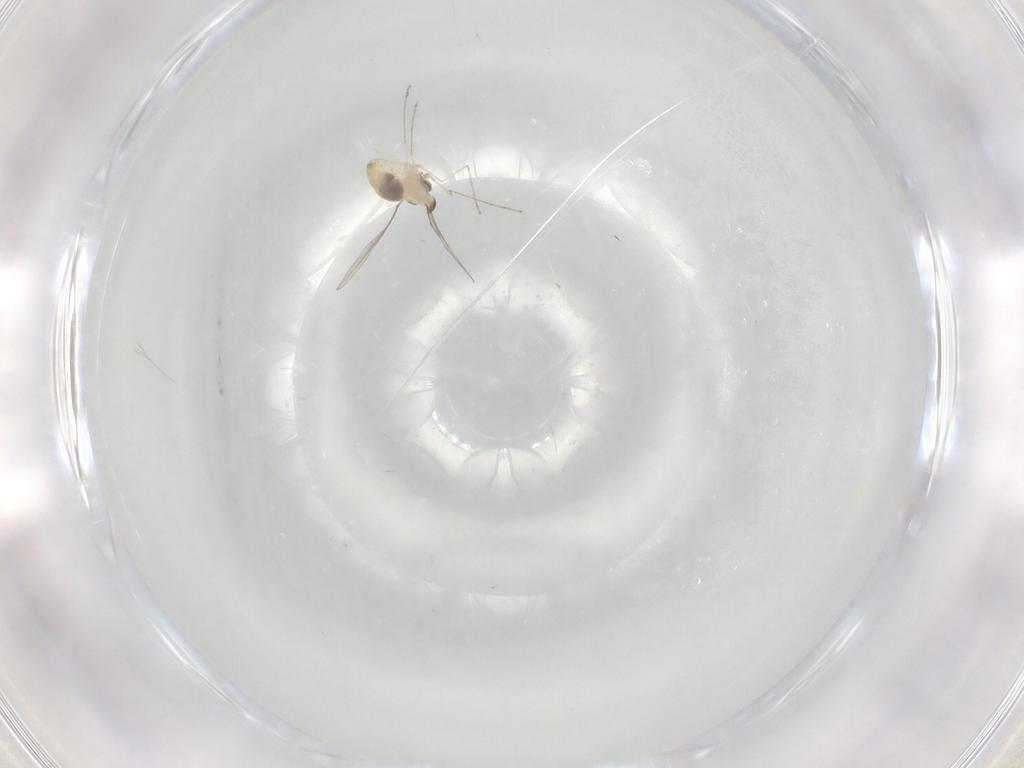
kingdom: Animalia
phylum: Arthropoda
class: Insecta
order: Diptera
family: Cecidomyiidae
